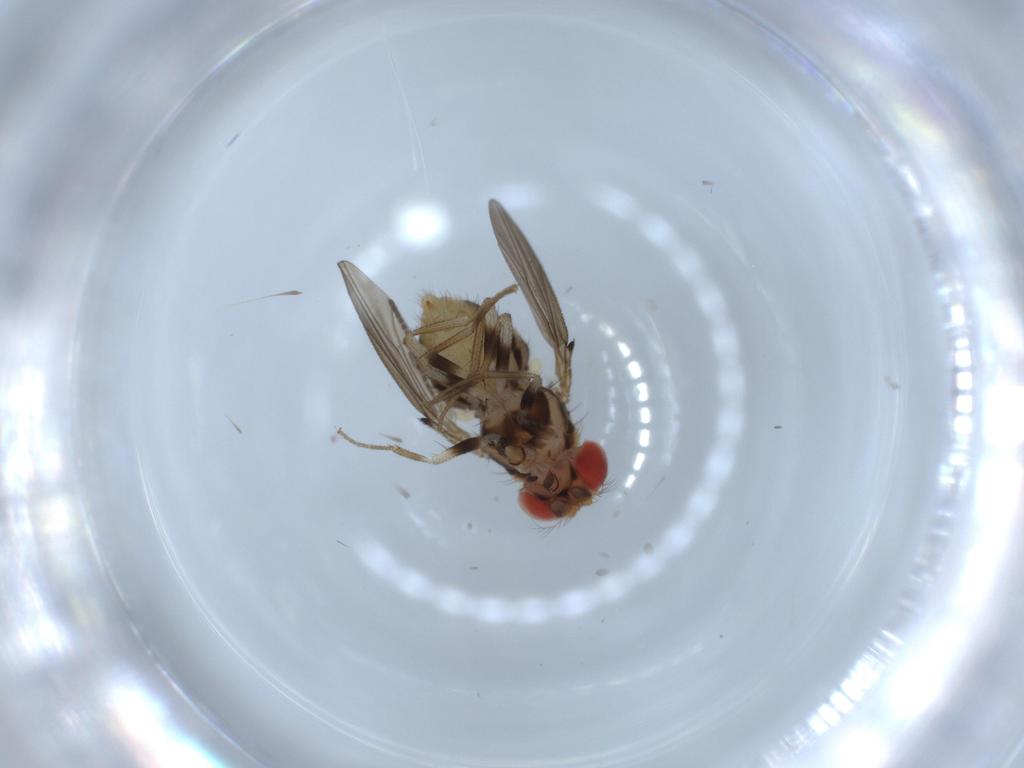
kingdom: Animalia
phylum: Arthropoda
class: Insecta
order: Diptera
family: Drosophilidae
